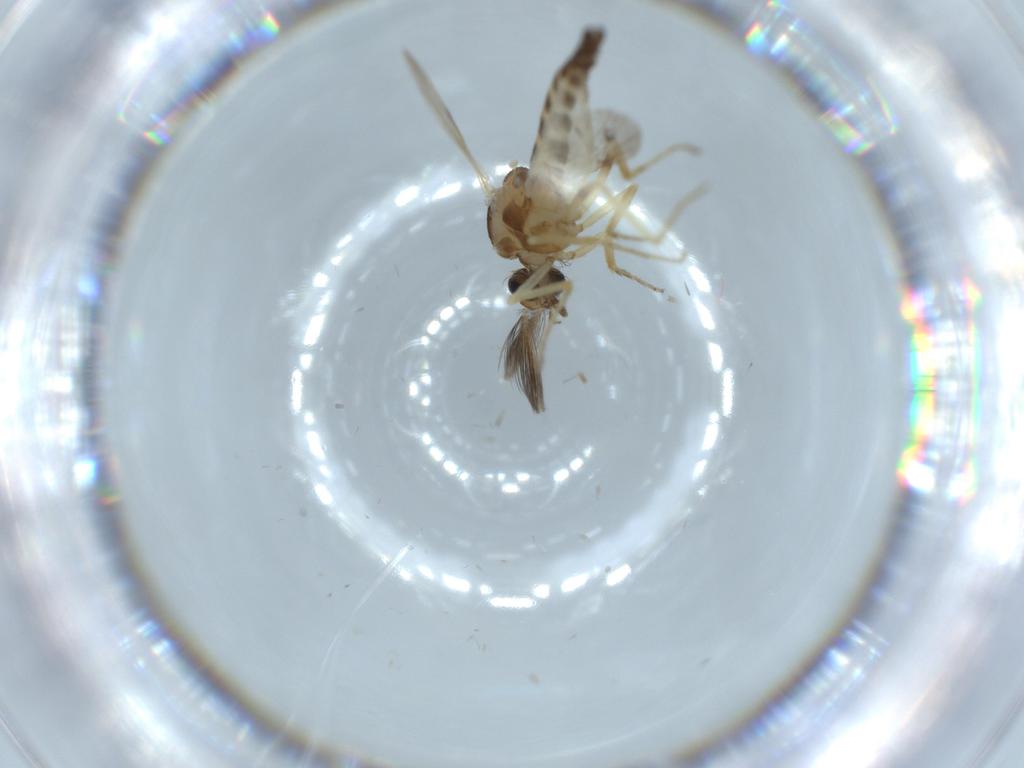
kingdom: Animalia
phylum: Arthropoda
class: Insecta
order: Diptera
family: Ceratopogonidae
